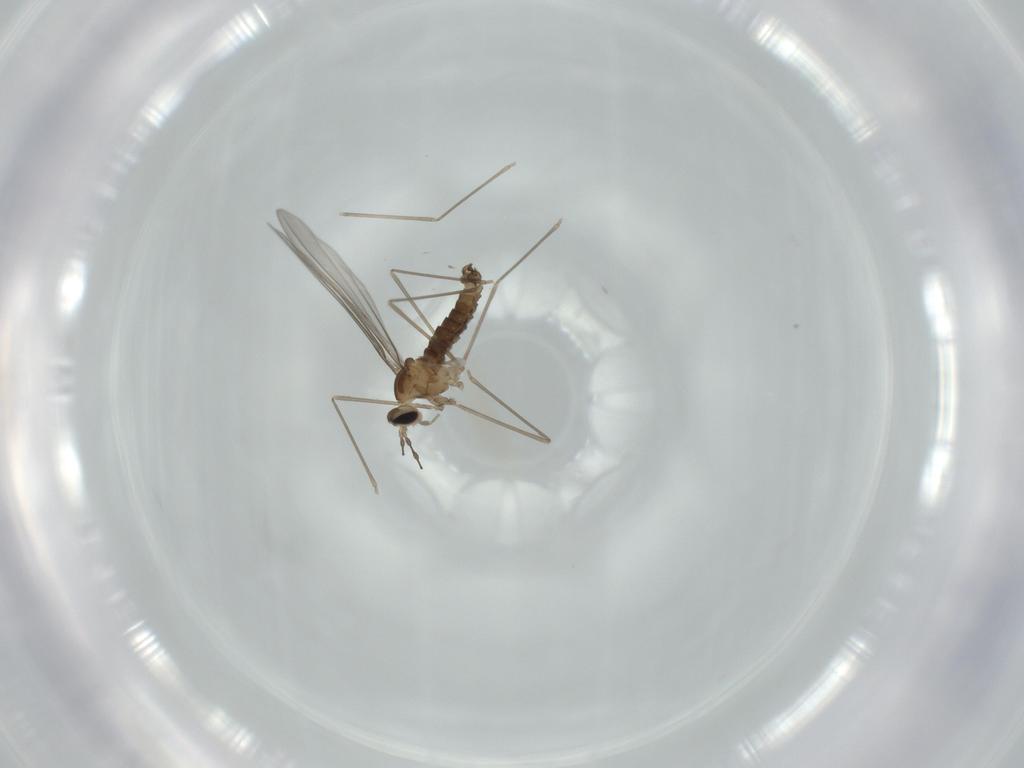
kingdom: Animalia
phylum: Arthropoda
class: Insecta
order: Diptera
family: Cecidomyiidae
